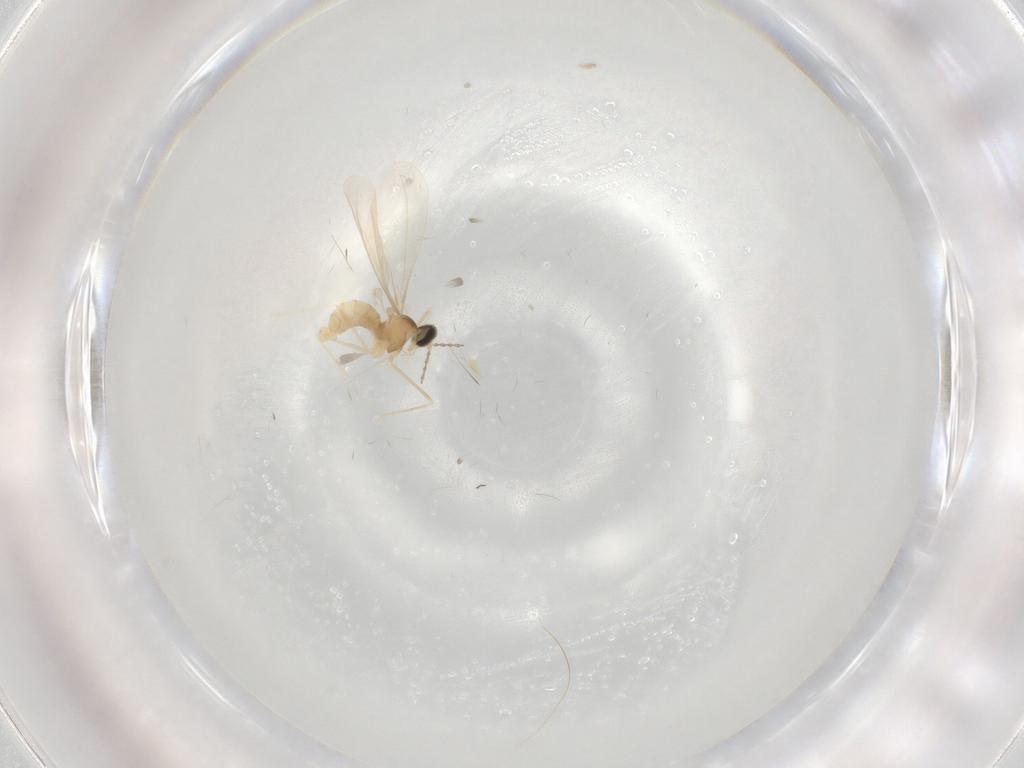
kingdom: Animalia
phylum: Arthropoda
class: Insecta
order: Diptera
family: Cecidomyiidae
